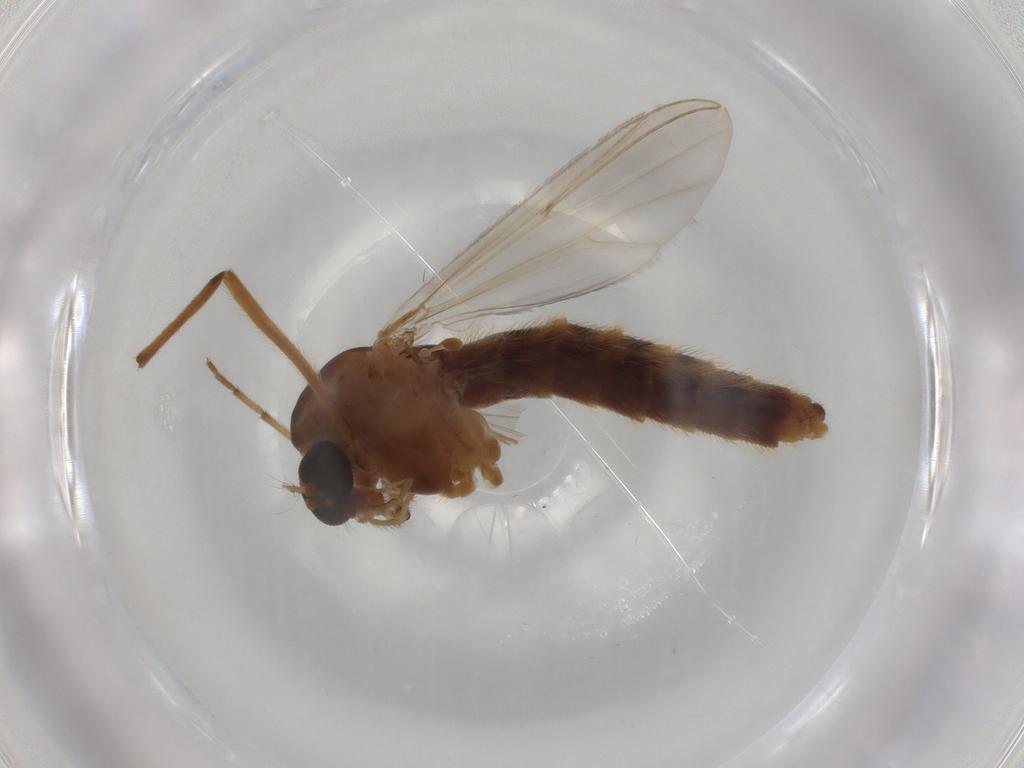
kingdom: Animalia
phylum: Arthropoda
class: Insecta
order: Diptera
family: Chironomidae
